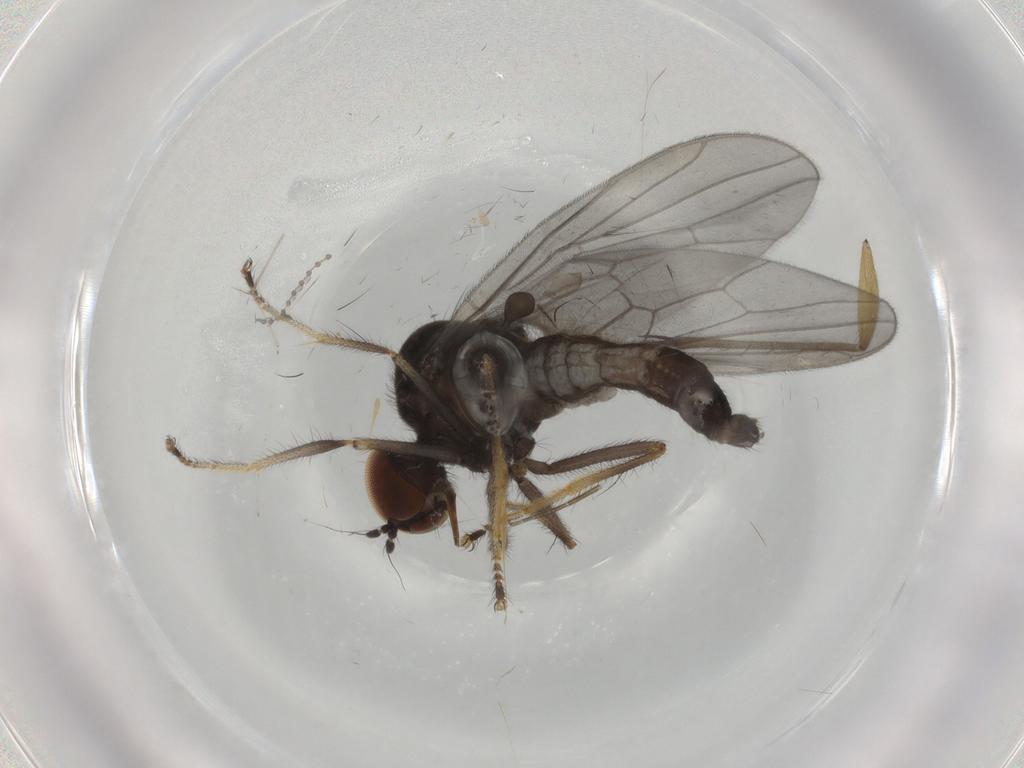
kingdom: Animalia
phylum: Arthropoda
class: Insecta
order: Diptera
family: Hybotidae
